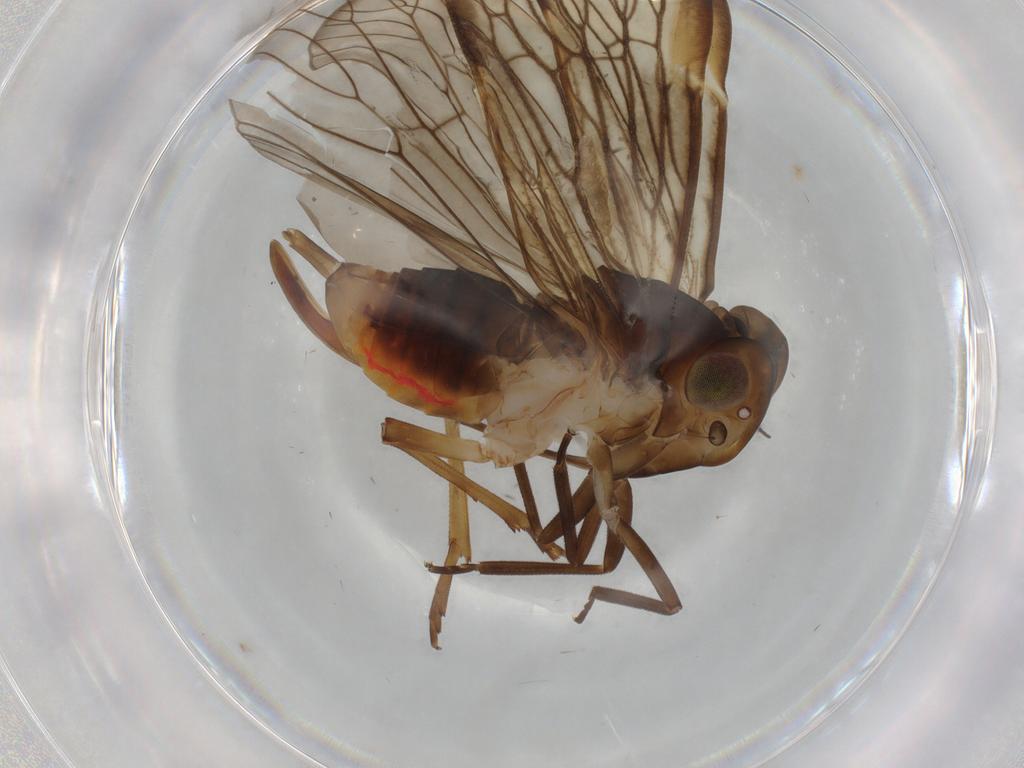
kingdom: Animalia
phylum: Arthropoda
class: Insecta
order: Hemiptera
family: Cixiidae
